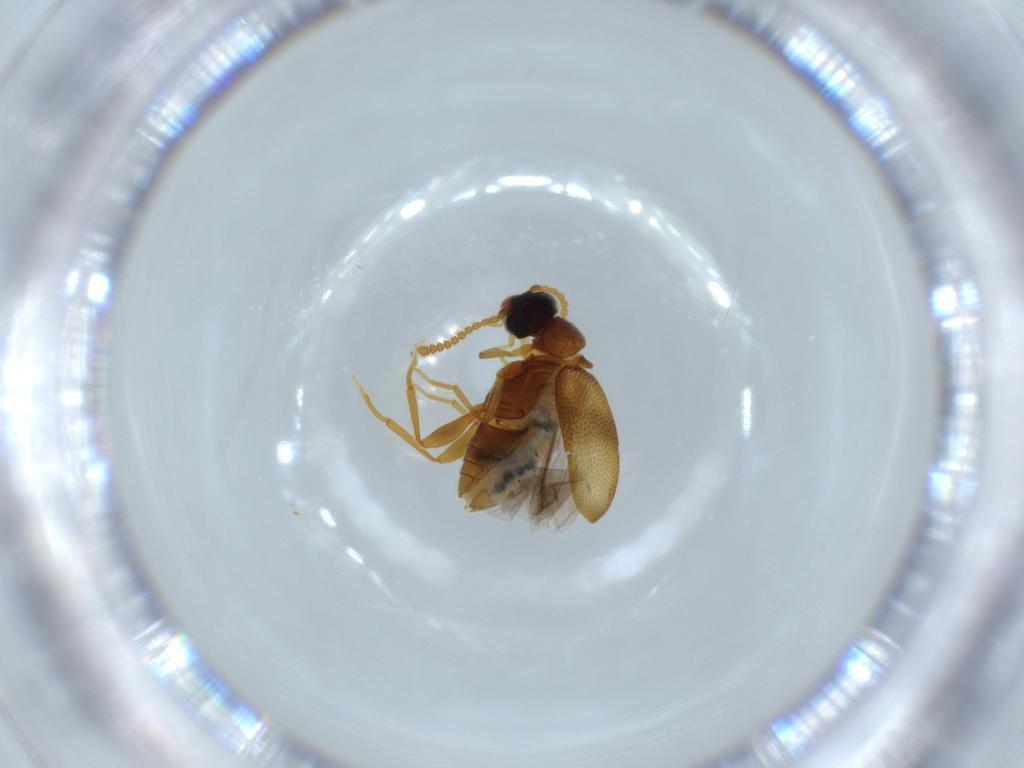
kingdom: Animalia
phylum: Arthropoda
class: Insecta
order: Coleoptera
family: Aderidae
